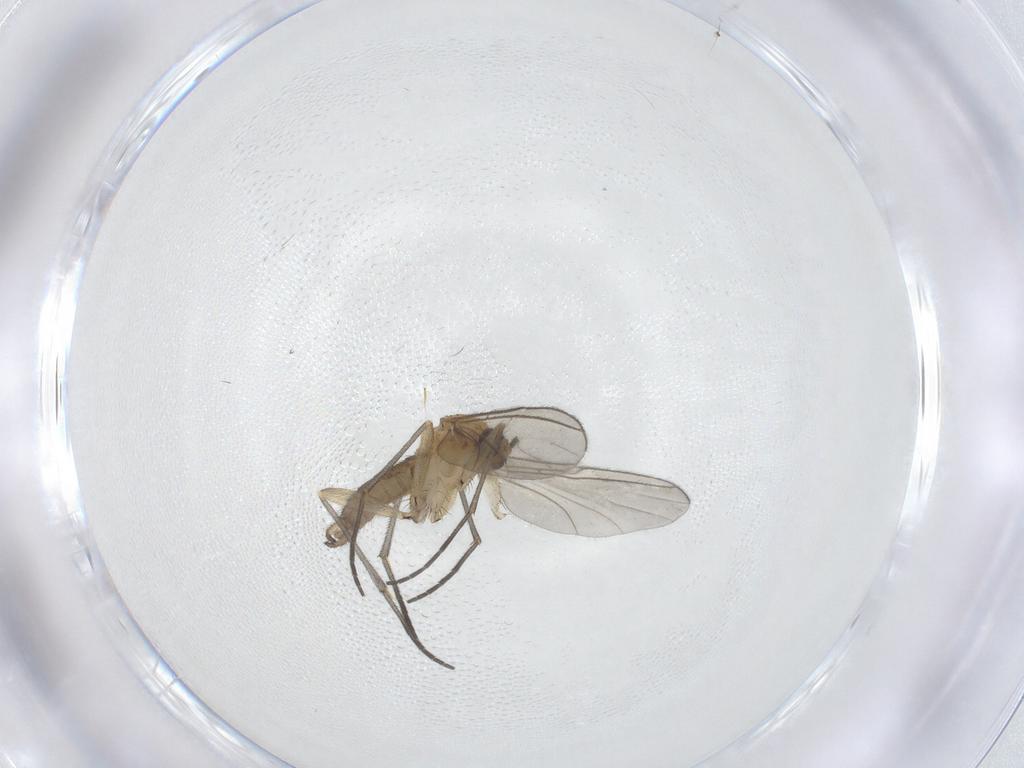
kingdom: Animalia
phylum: Arthropoda
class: Insecta
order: Diptera
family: Sciaridae
